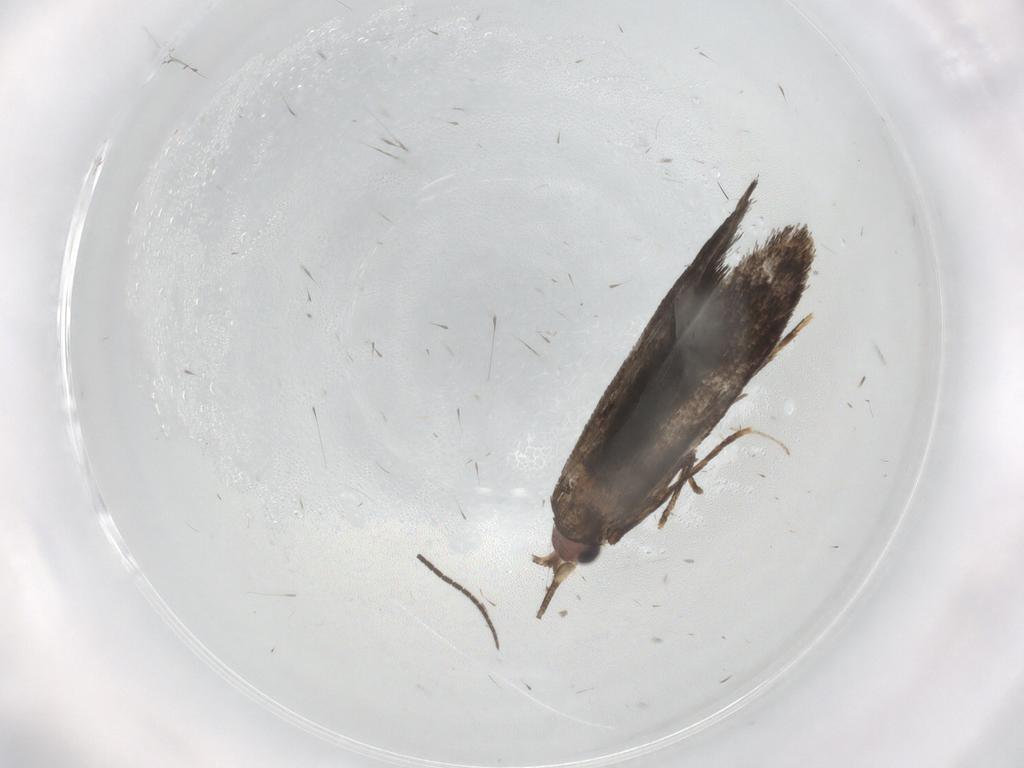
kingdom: Animalia
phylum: Arthropoda
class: Insecta
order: Lepidoptera
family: Nepticulidae
